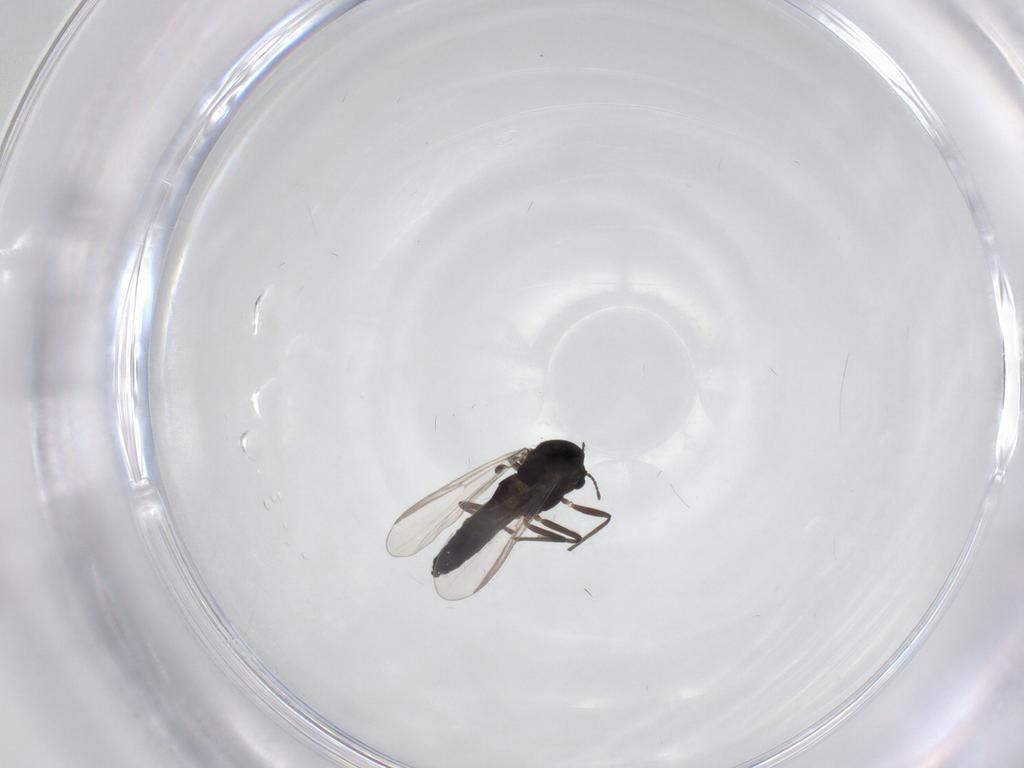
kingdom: Animalia
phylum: Arthropoda
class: Insecta
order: Diptera
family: Chironomidae
